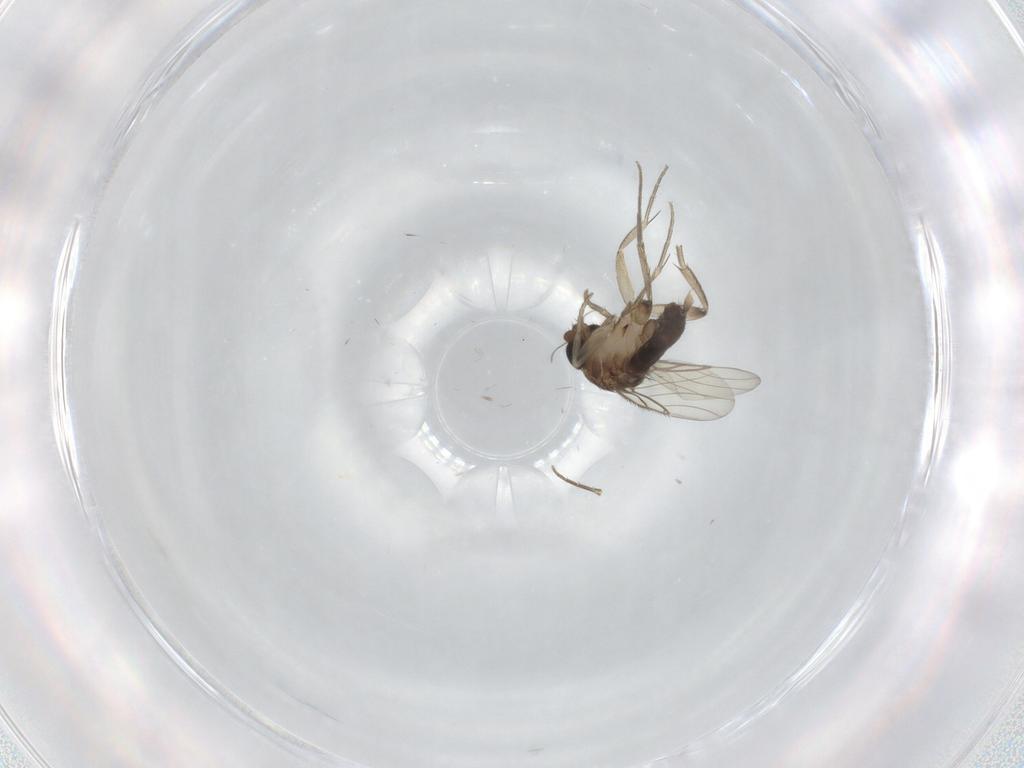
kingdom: Animalia
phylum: Arthropoda
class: Insecta
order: Diptera
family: Phoridae
